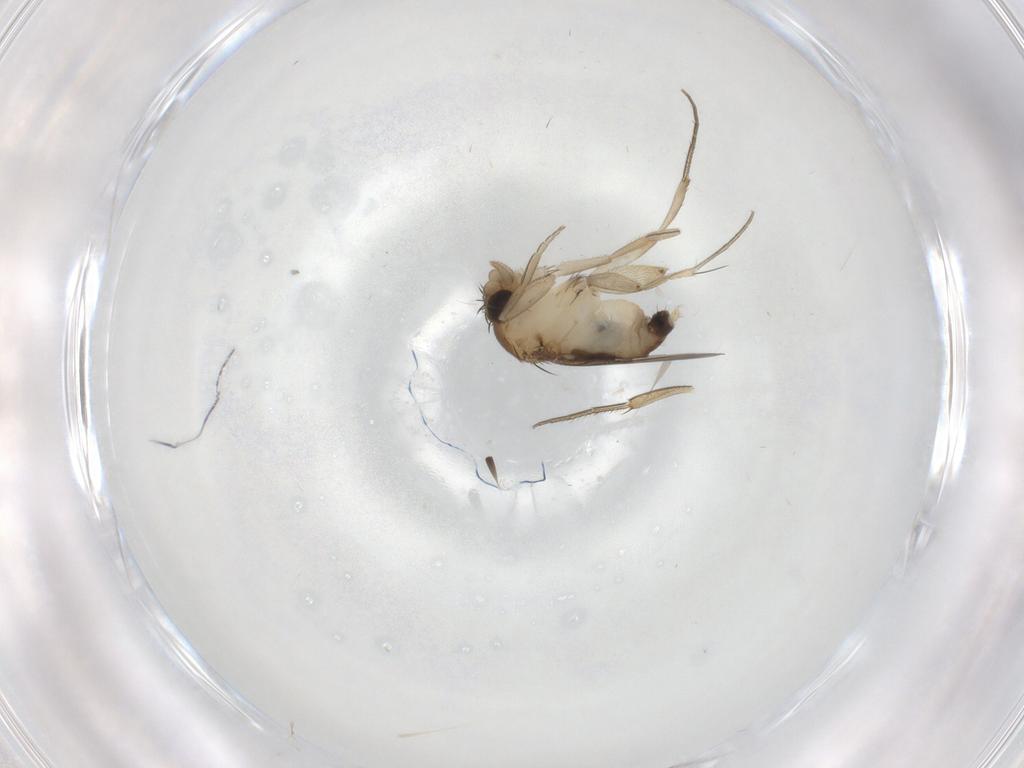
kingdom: Animalia
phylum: Arthropoda
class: Insecta
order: Diptera
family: Phoridae
